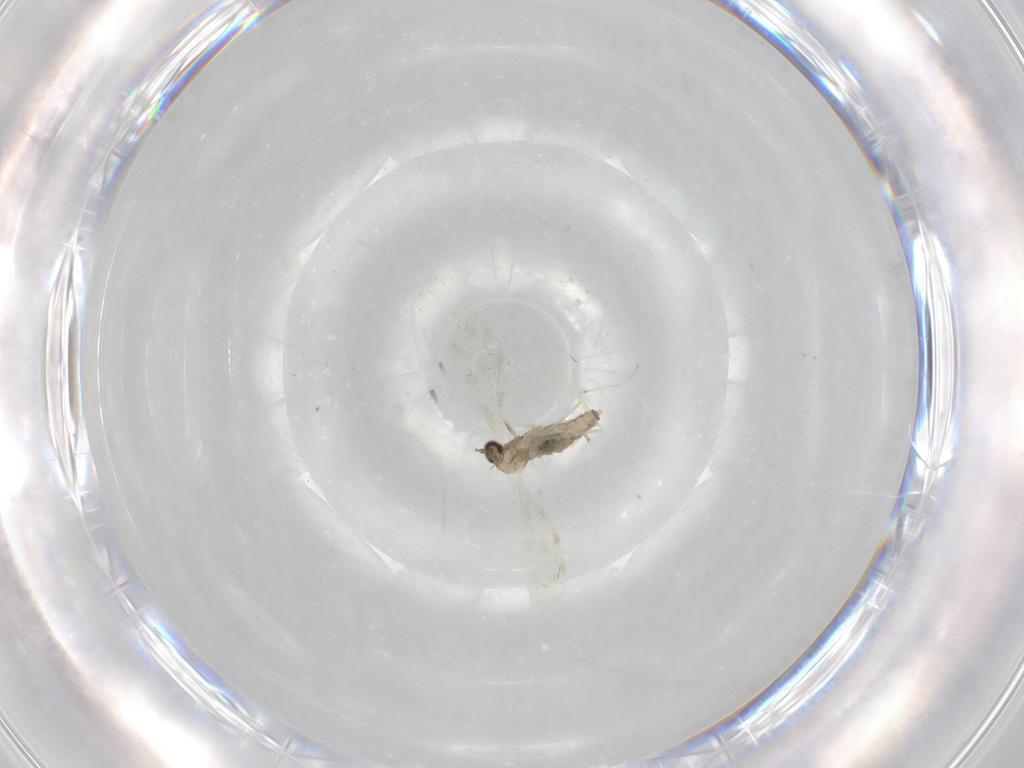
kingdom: Animalia
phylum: Arthropoda
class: Insecta
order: Diptera
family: Cecidomyiidae
